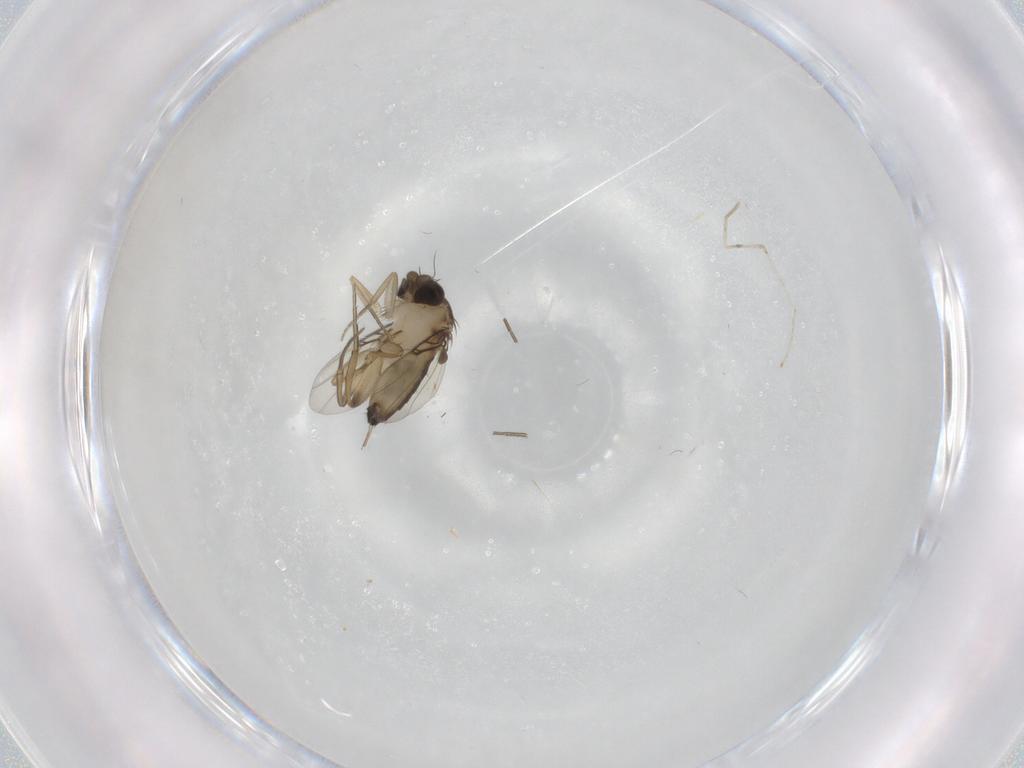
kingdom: Animalia
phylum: Arthropoda
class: Insecta
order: Diptera
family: Phoridae
